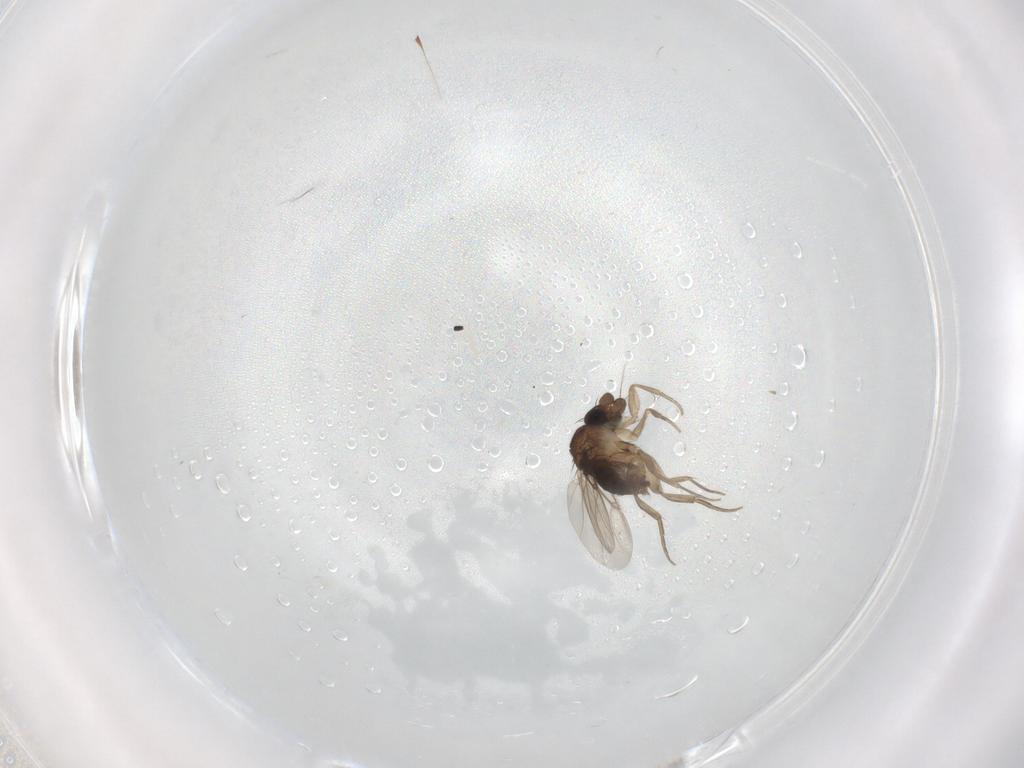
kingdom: Animalia
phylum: Arthropoda
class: Insecta
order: Diptera
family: Phoridae
